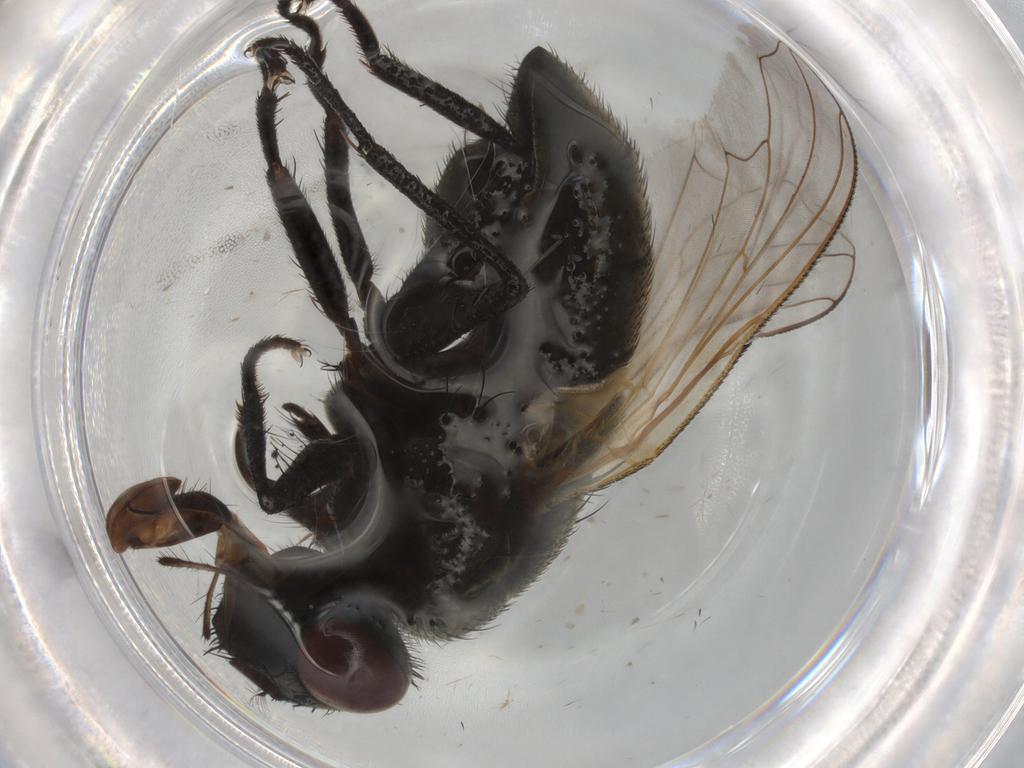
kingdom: Animalia
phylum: Arthropoda
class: Insecta
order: Diptera
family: Muscidae
